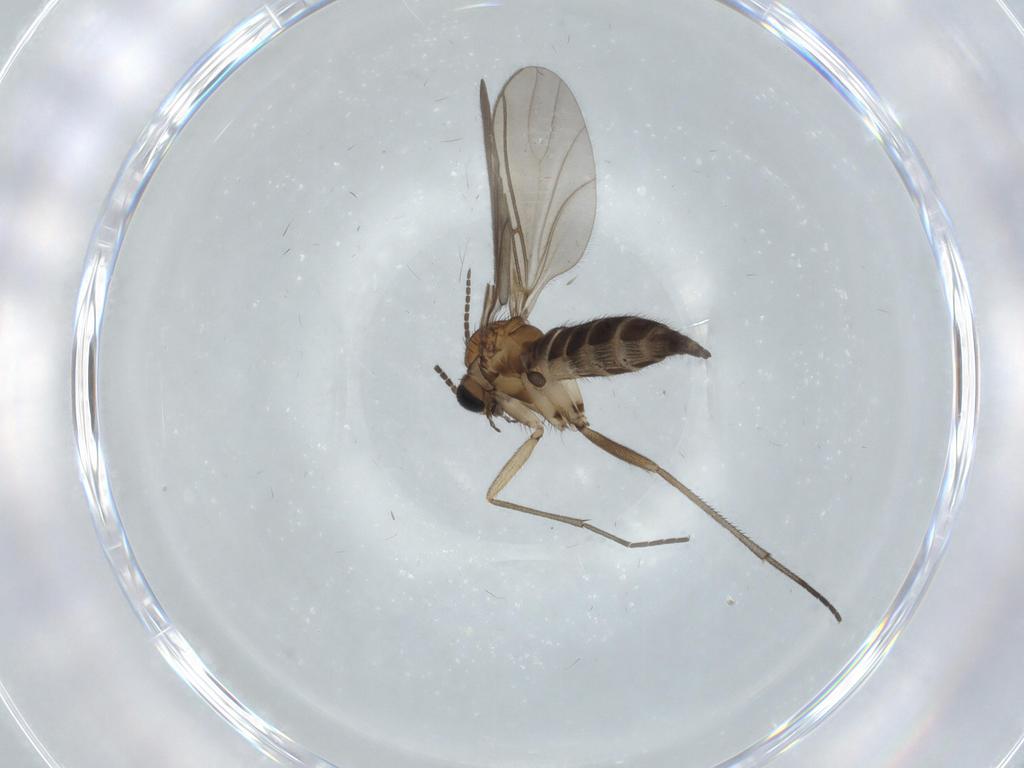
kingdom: Animalia
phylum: Arthropoda
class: Insecta
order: Diptera
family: Sciaridae
